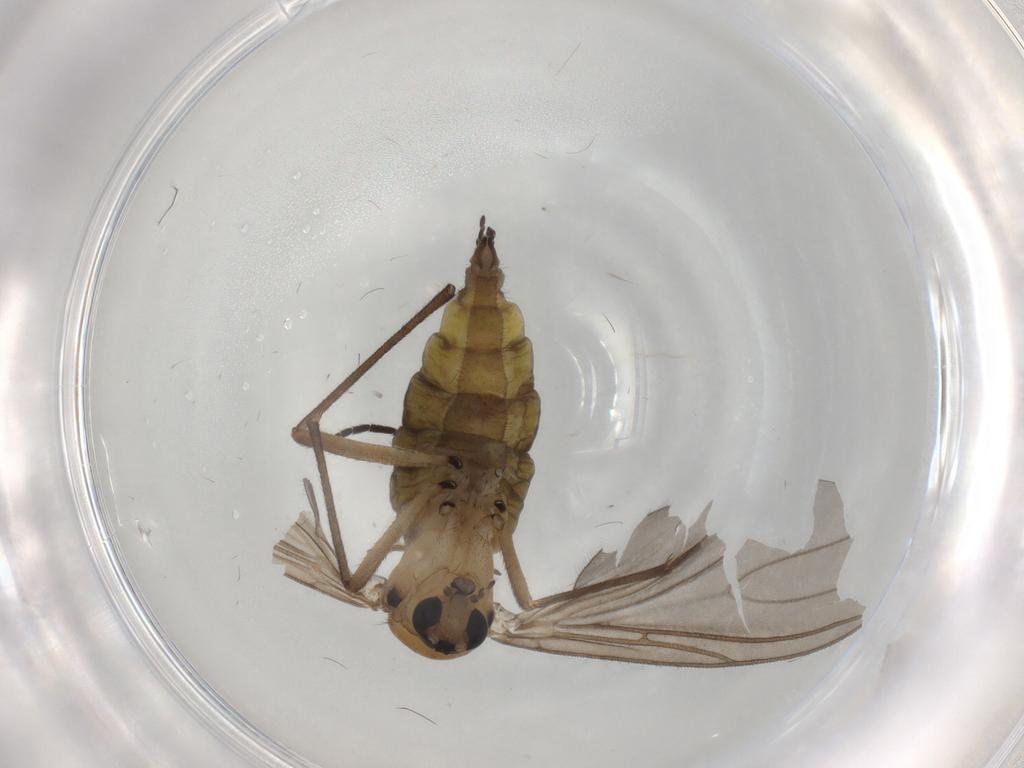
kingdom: Animalia
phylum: Arthropoda
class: Insecta
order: Diptera
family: Sciaridae
